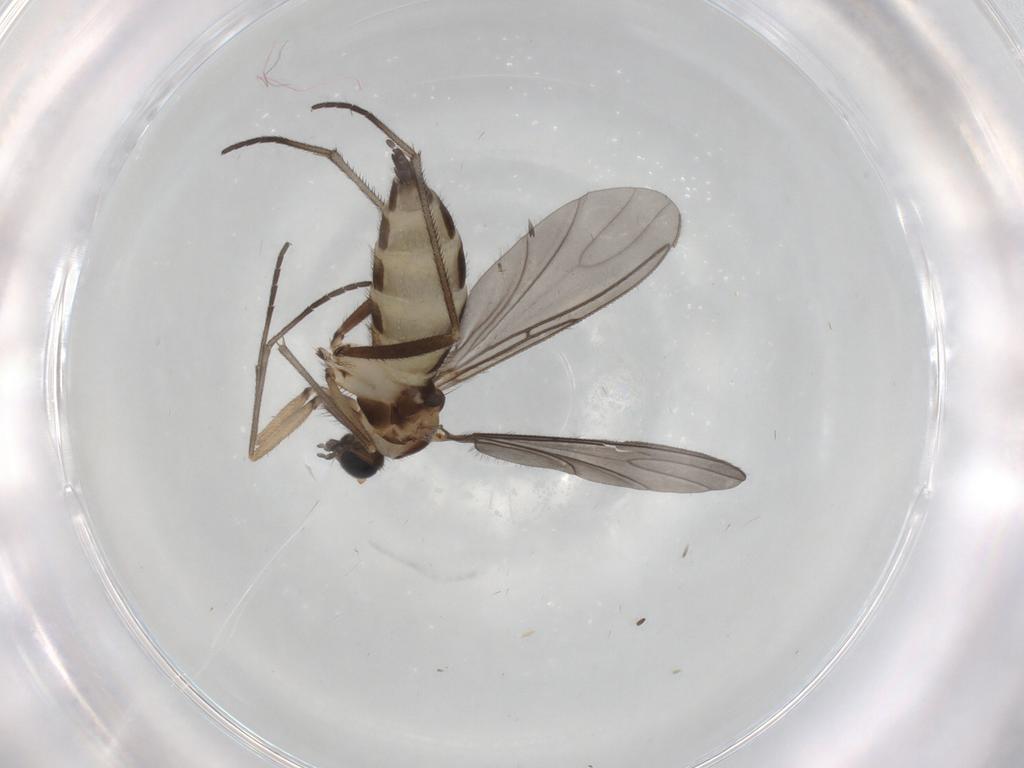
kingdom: Animalia
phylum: Arthropoda
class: Insecta
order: Diptera
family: Sciaridae
